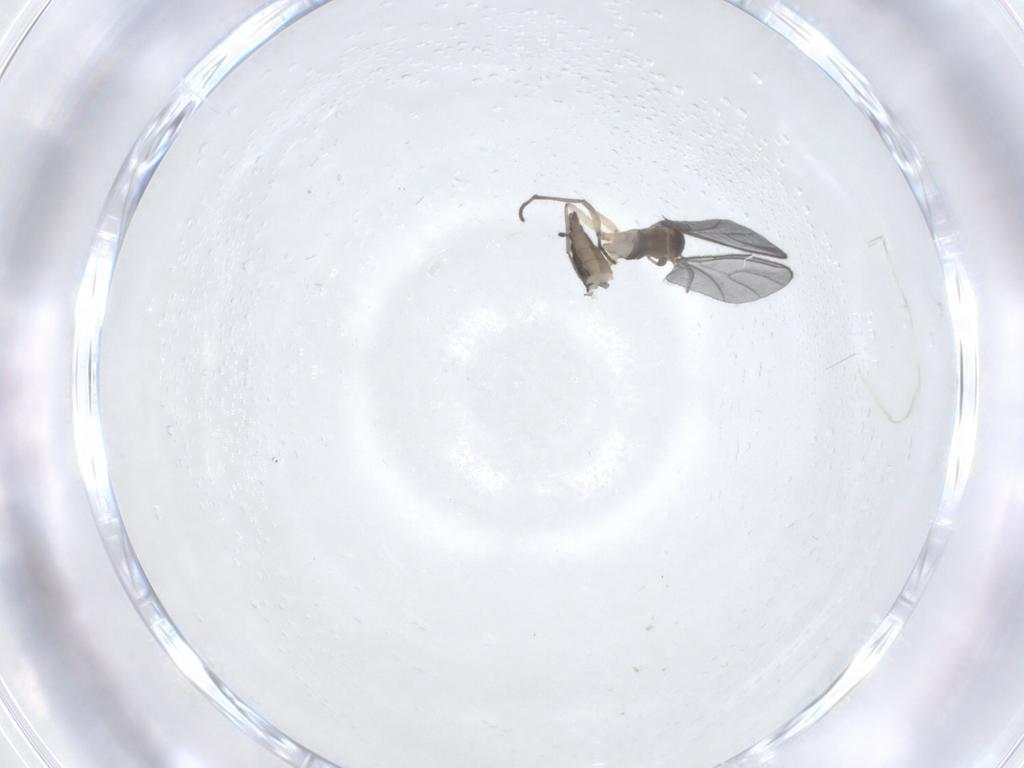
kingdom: Animalia
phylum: Arthropoda
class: Insecta
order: Diptera
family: Sciaridae
